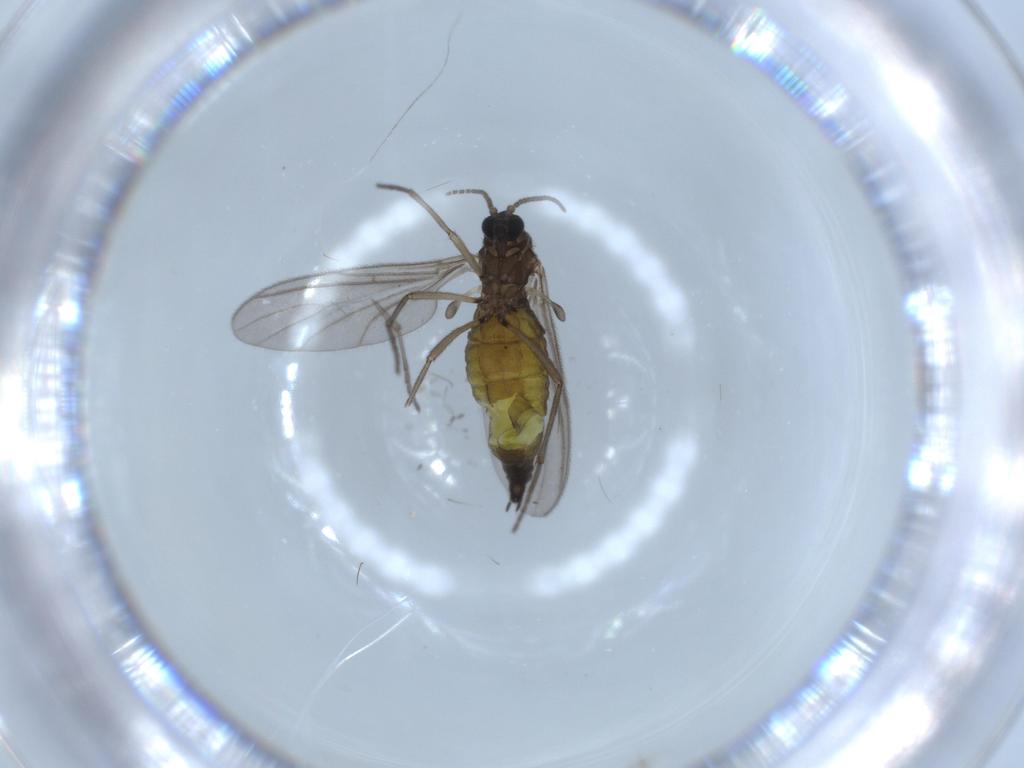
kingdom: Animalia
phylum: Arthropoda
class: Insecta
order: Diptera
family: Sciaridae
